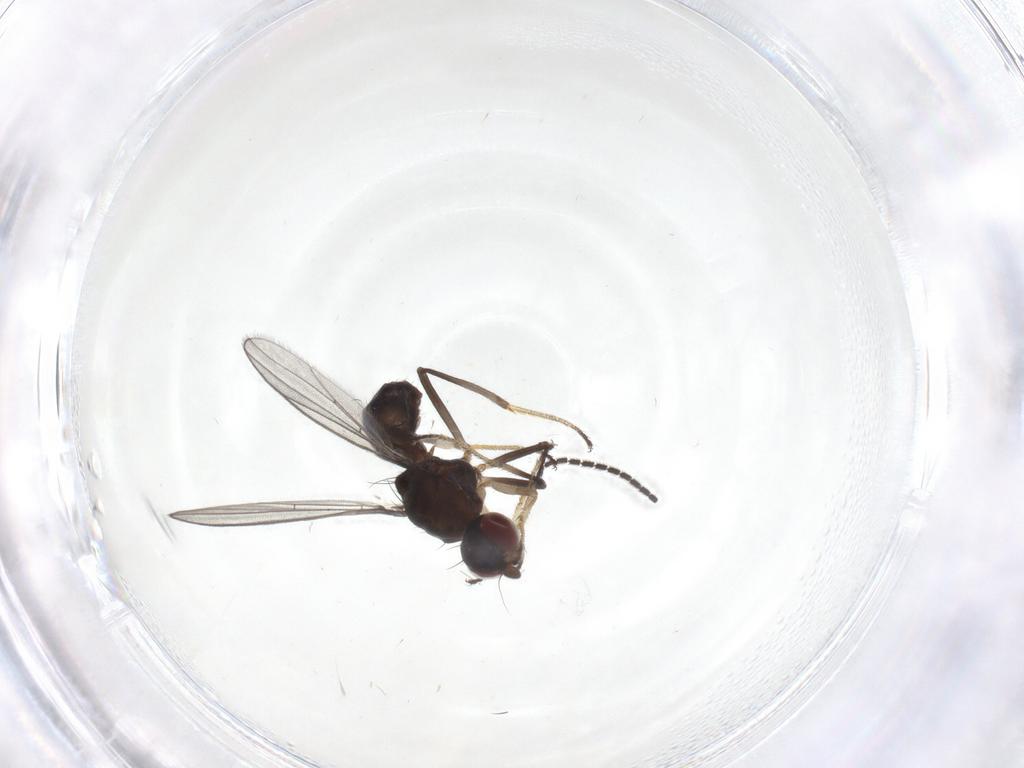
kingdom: Animalia
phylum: Arthropoda
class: Insecta
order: Diptera
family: Sepsidae
